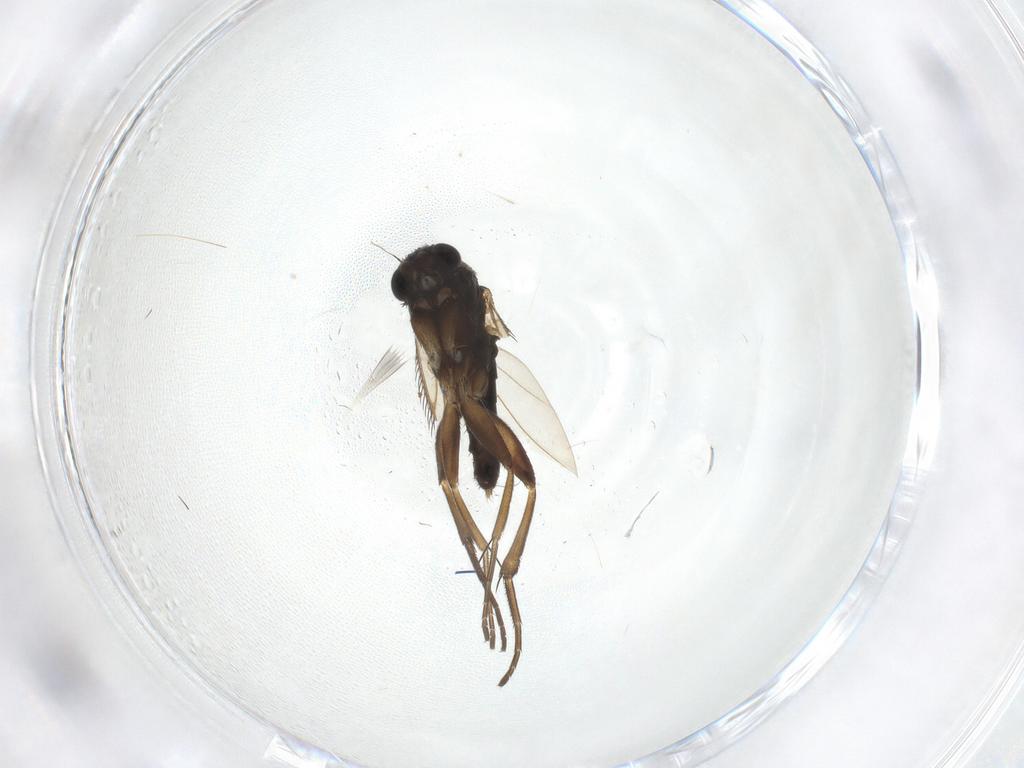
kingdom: Animalia
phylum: Arthropoda
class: Insecta
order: Diptera
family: Phoridae
